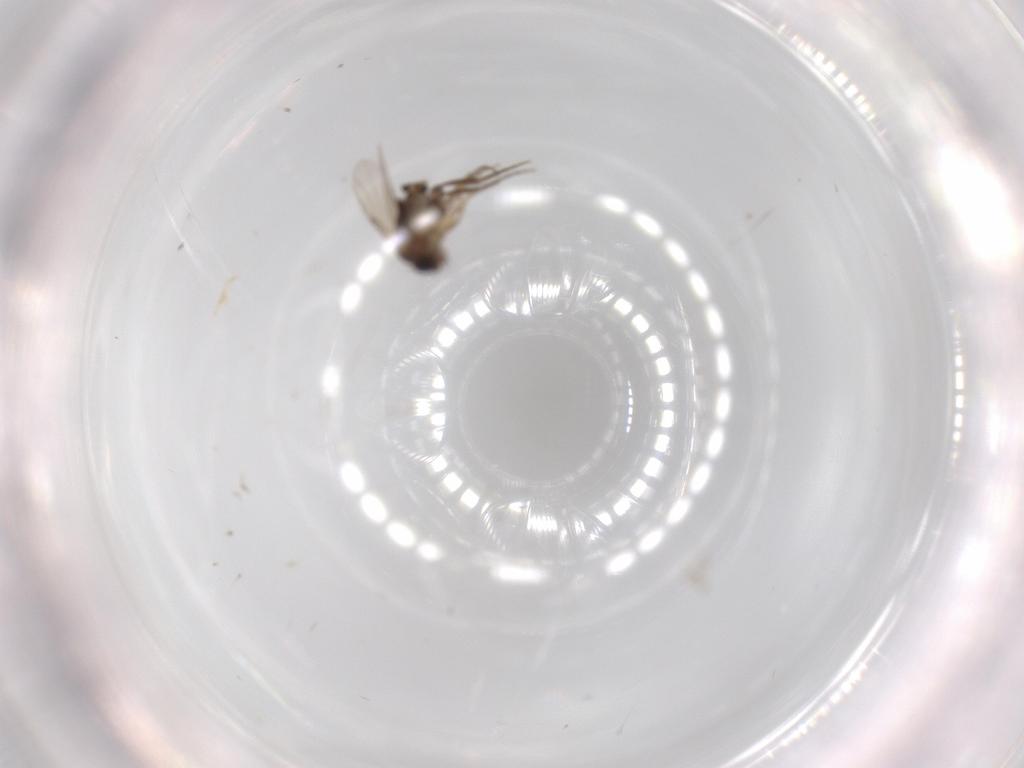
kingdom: Animalia
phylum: Arthropoda
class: Insecta
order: Diptera
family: Phoridae
